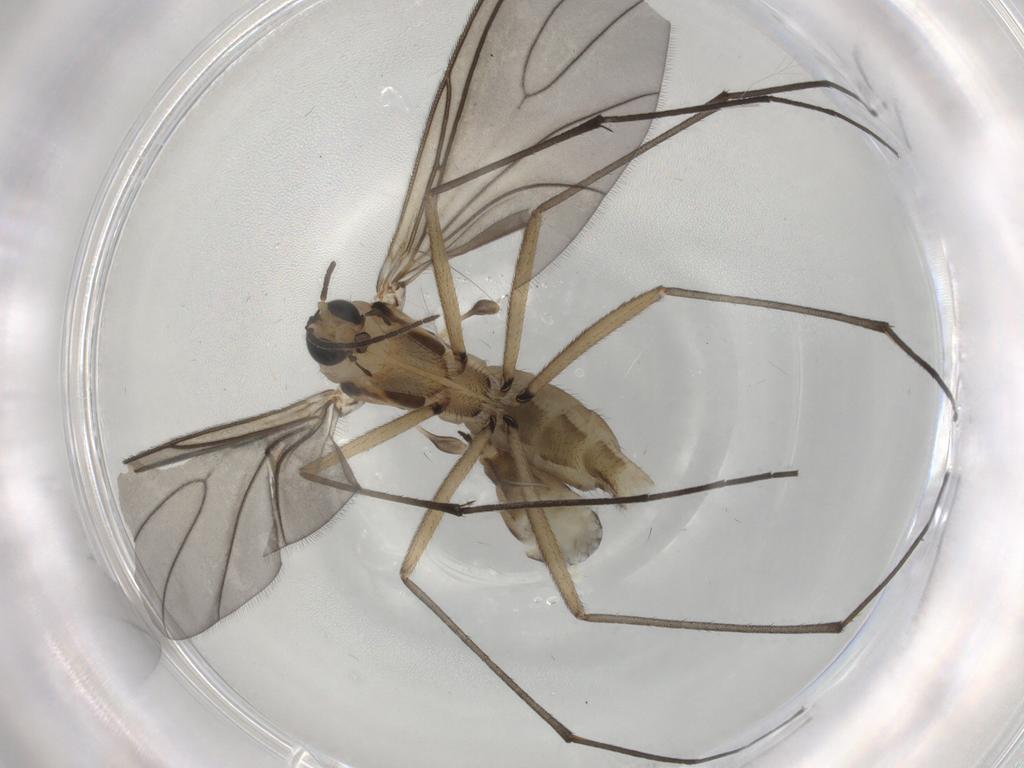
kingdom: Animalia
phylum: Arthropoda
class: Insecta
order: Diptera
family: Sciaridae
